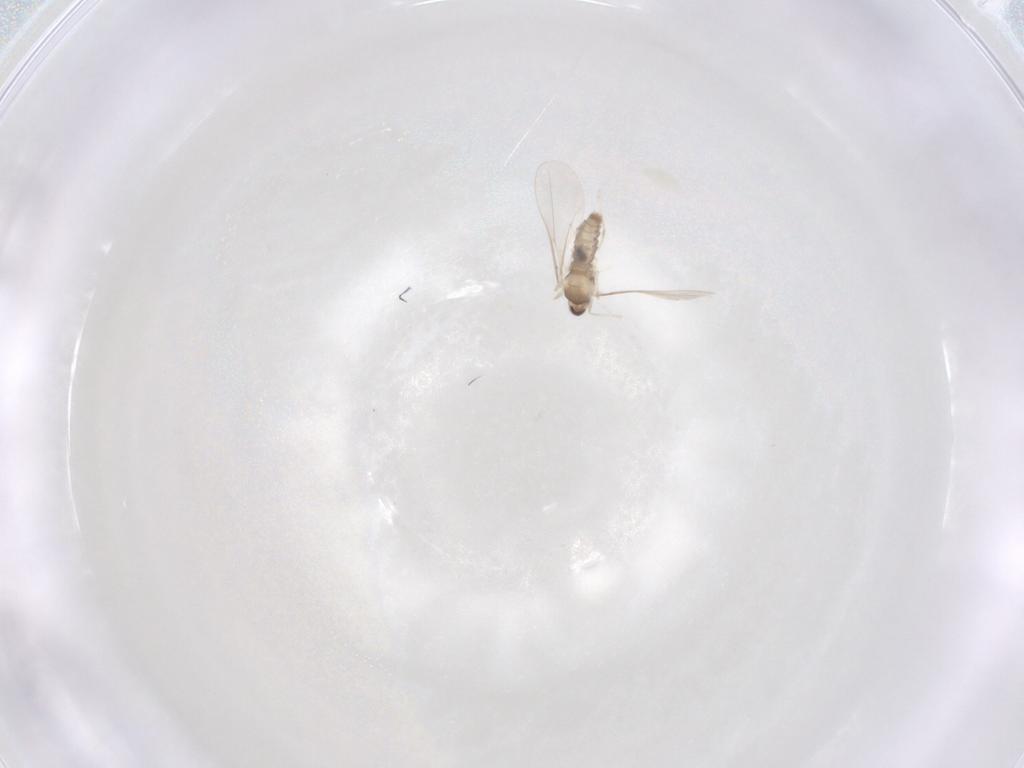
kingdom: Animalia
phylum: Arthropoda
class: Insecta
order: Diptera
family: Cecidomyiidae
